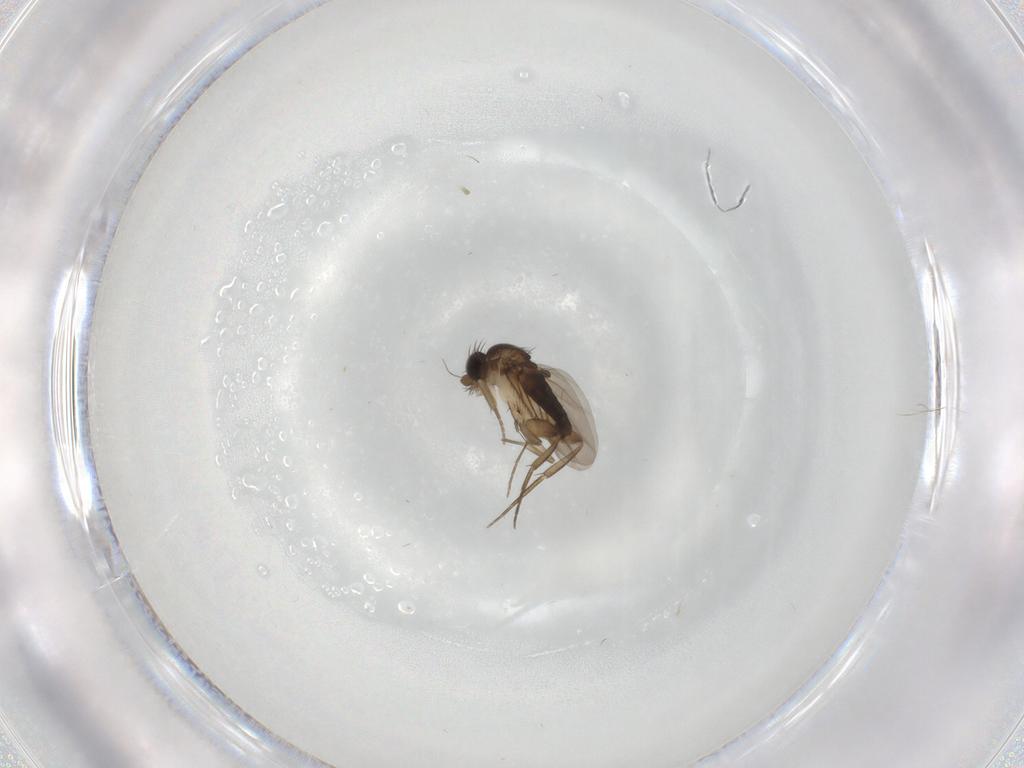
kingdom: Animalia
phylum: Arthropoda
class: Insecta
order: Diptera
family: Phoridae
